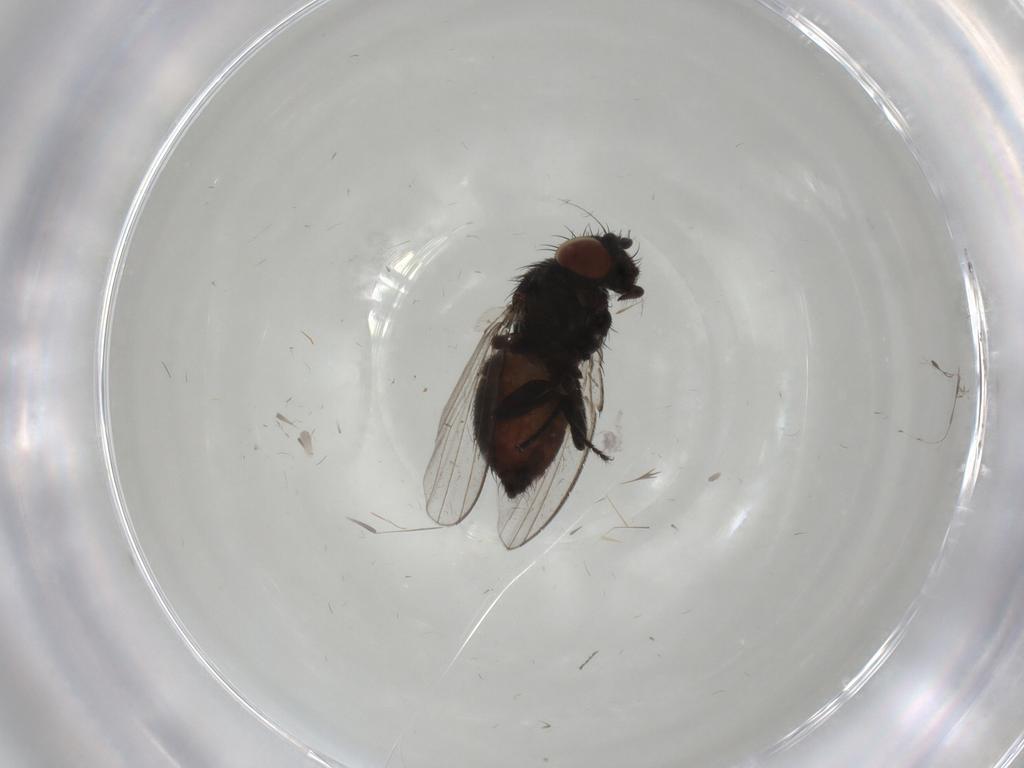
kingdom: Animalia
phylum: Arthropoda
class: Insecta
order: Diptera
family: Milichiidae
